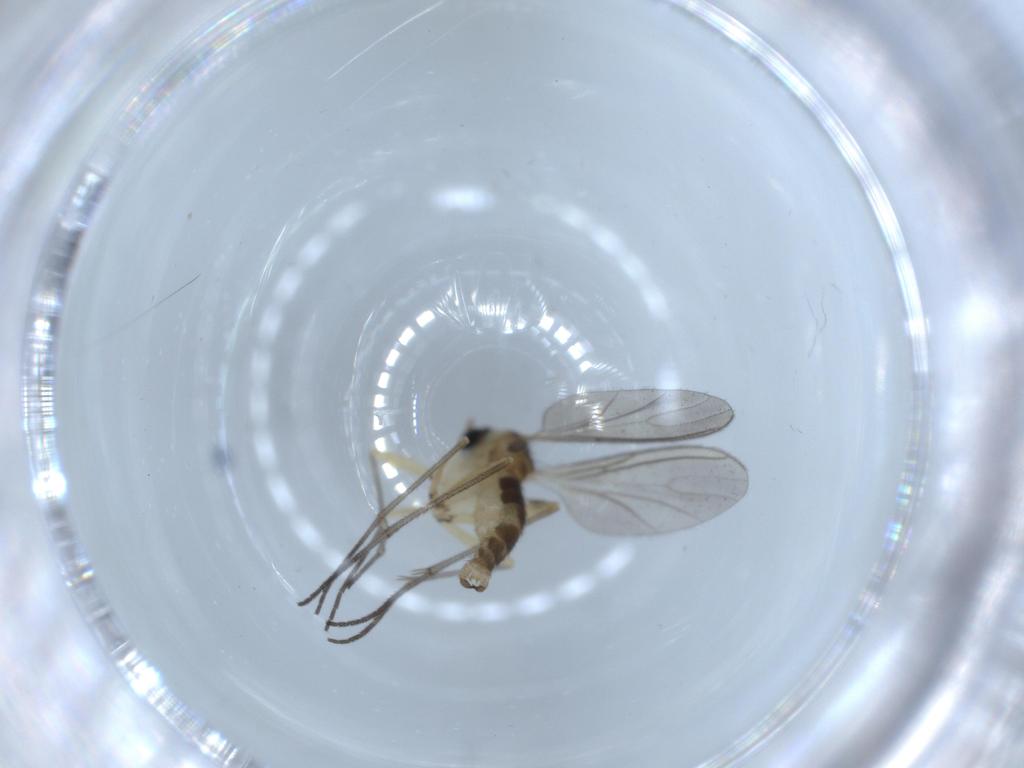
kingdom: Animalia
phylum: Arthropoda
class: Insecta
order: Diptera
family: Sciaridae
